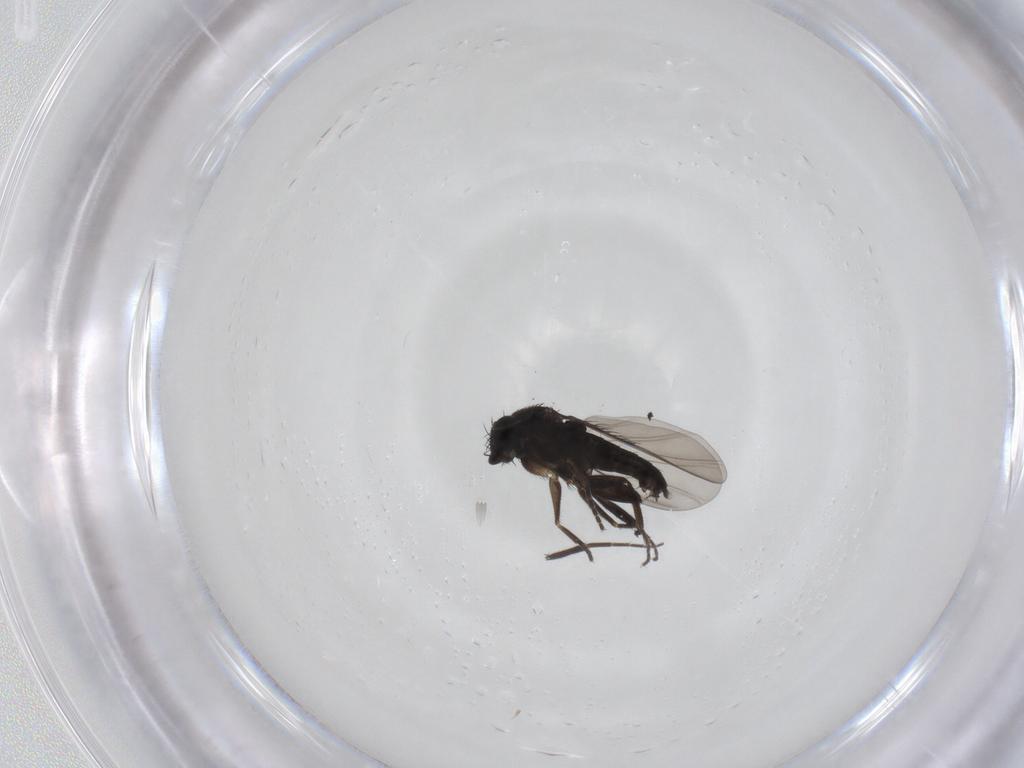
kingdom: Animalia
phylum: Arthropoda
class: Insecta
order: Diptera
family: Phoridae
